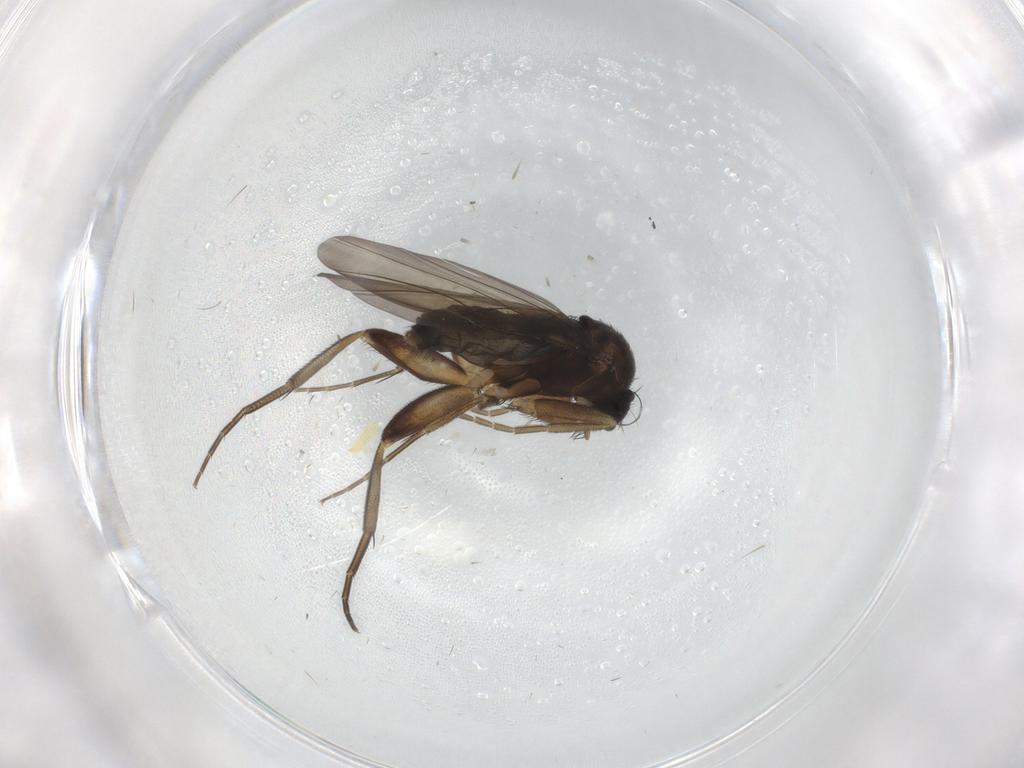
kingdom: Animalia
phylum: Arthropoda
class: Insecta
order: Diptera
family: Phoridae
